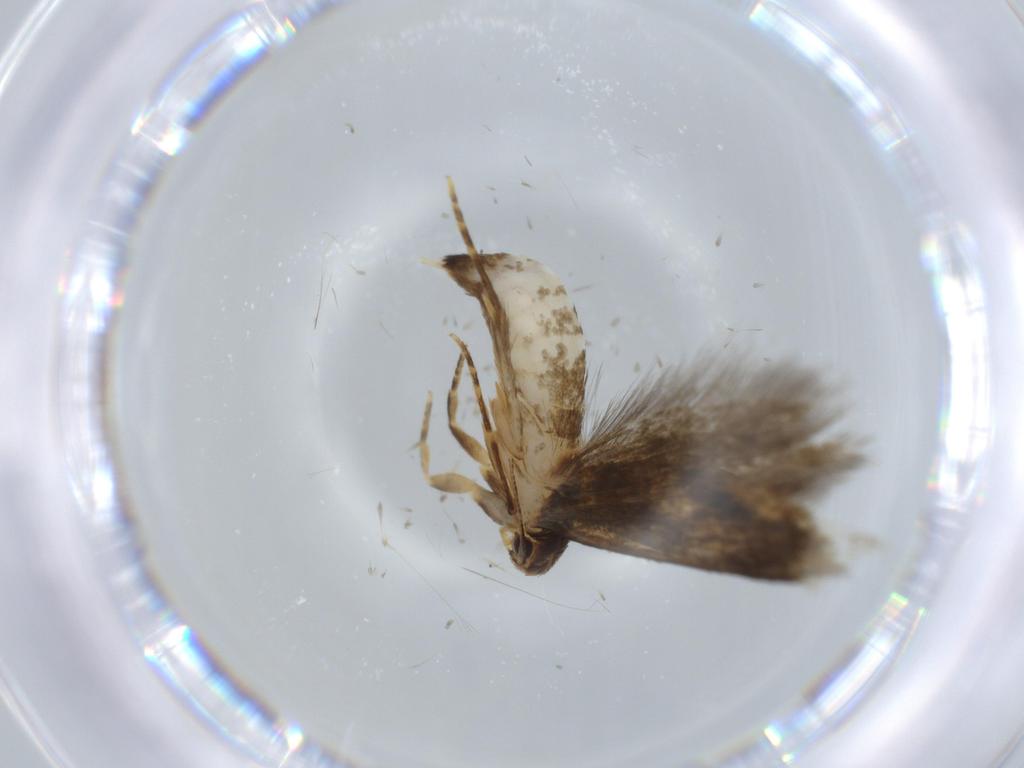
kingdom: Animalia
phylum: Arthropoda
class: Insecta
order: Lepidoptera
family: Tineidae
